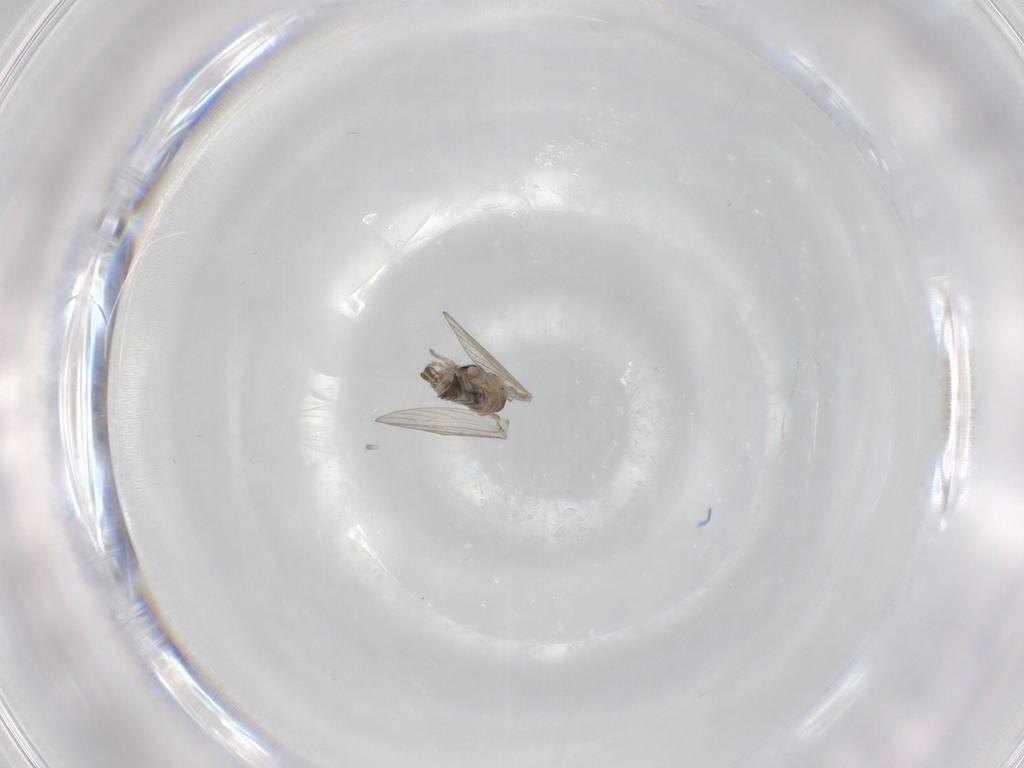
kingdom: Animalia
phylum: Arthropoda
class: Insecta
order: Diptera
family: Psychodidae
